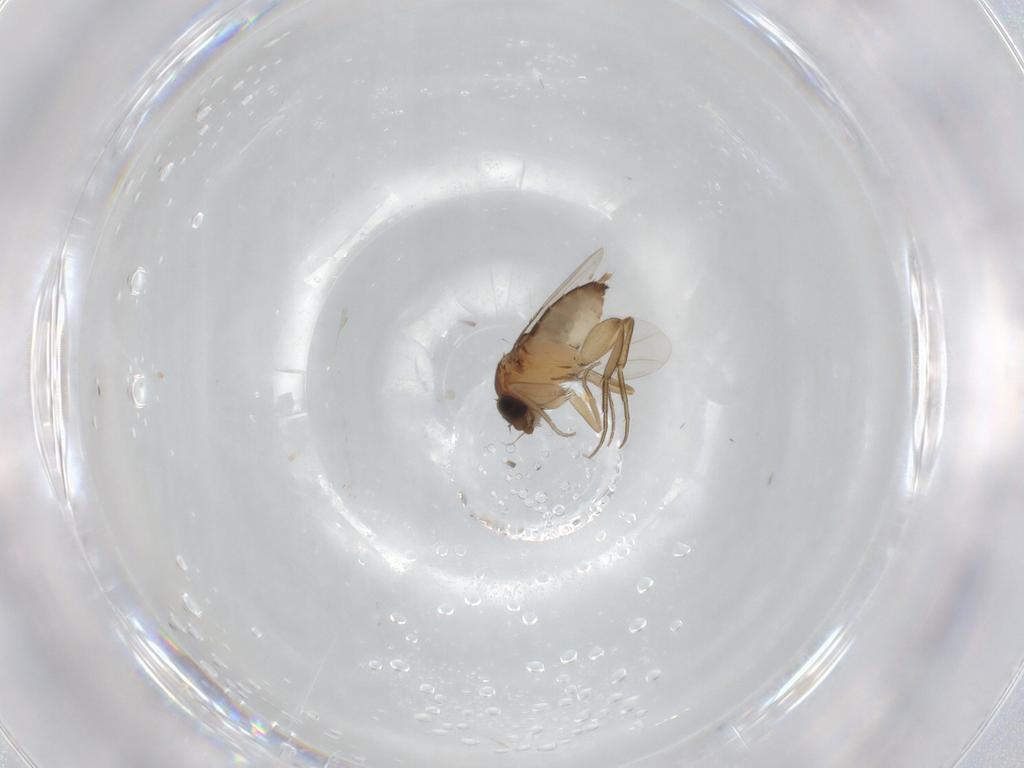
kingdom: Animalia
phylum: Arthropoda
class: Insecta
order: Diptera
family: Phoridae
